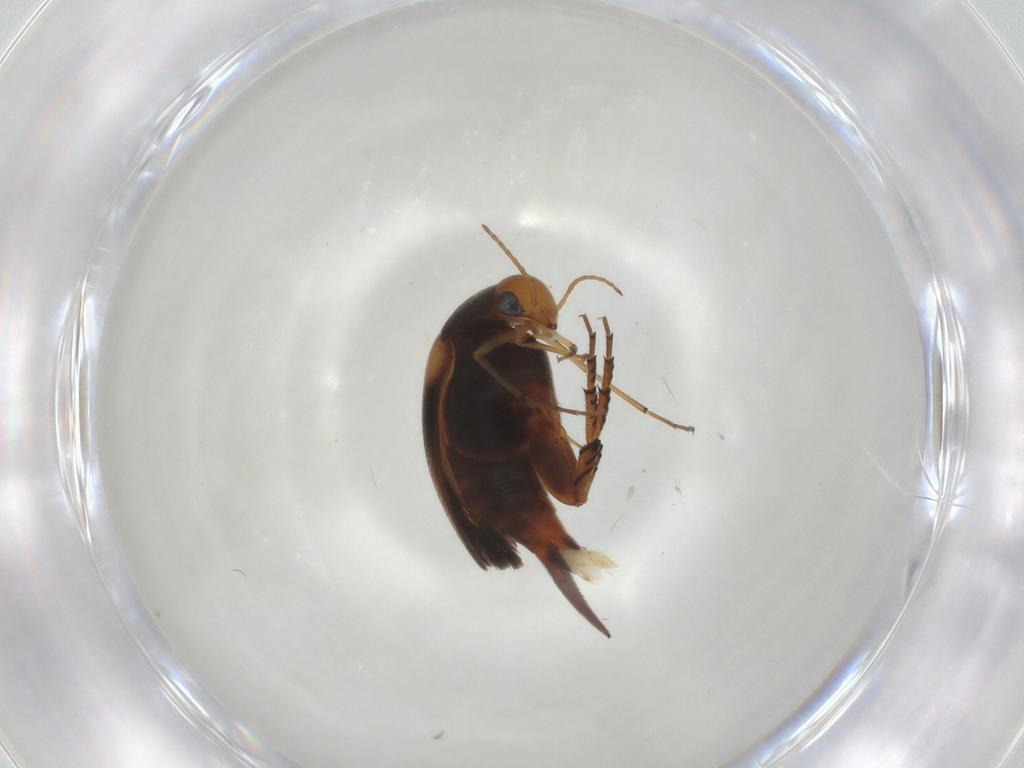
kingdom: Animalia
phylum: Arthropoda
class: Insecta
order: Coleoptera
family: Mordellidae
